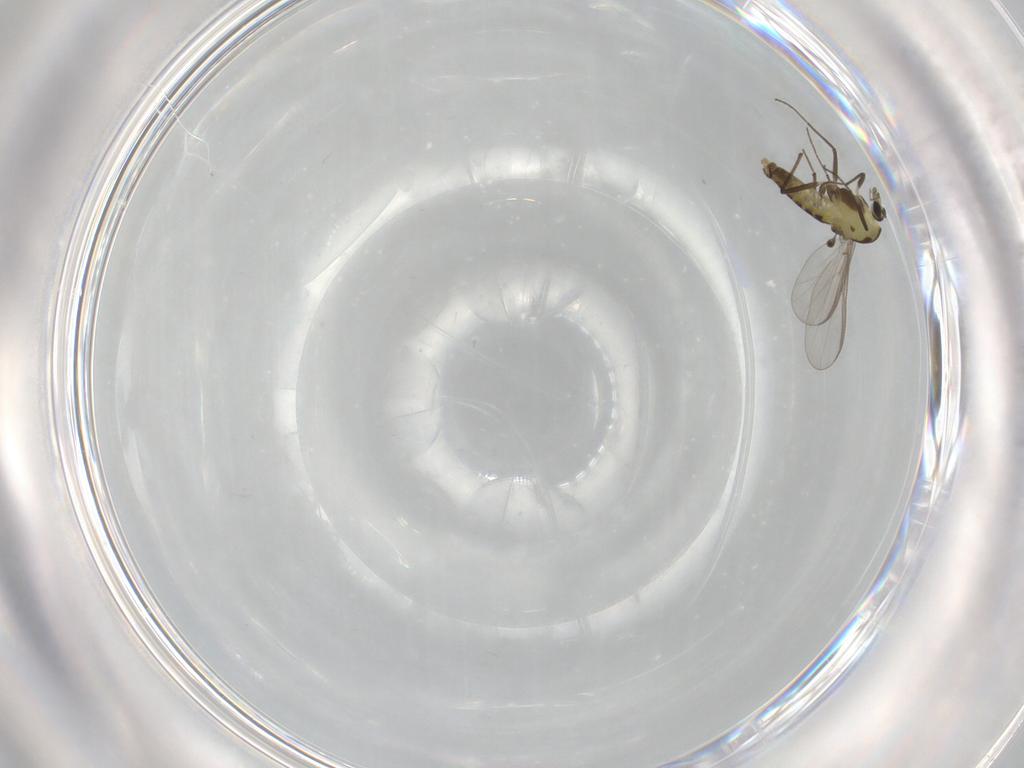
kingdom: Animalia
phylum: Arthropoda
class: Insecta
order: Diptera
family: Chironomidae
